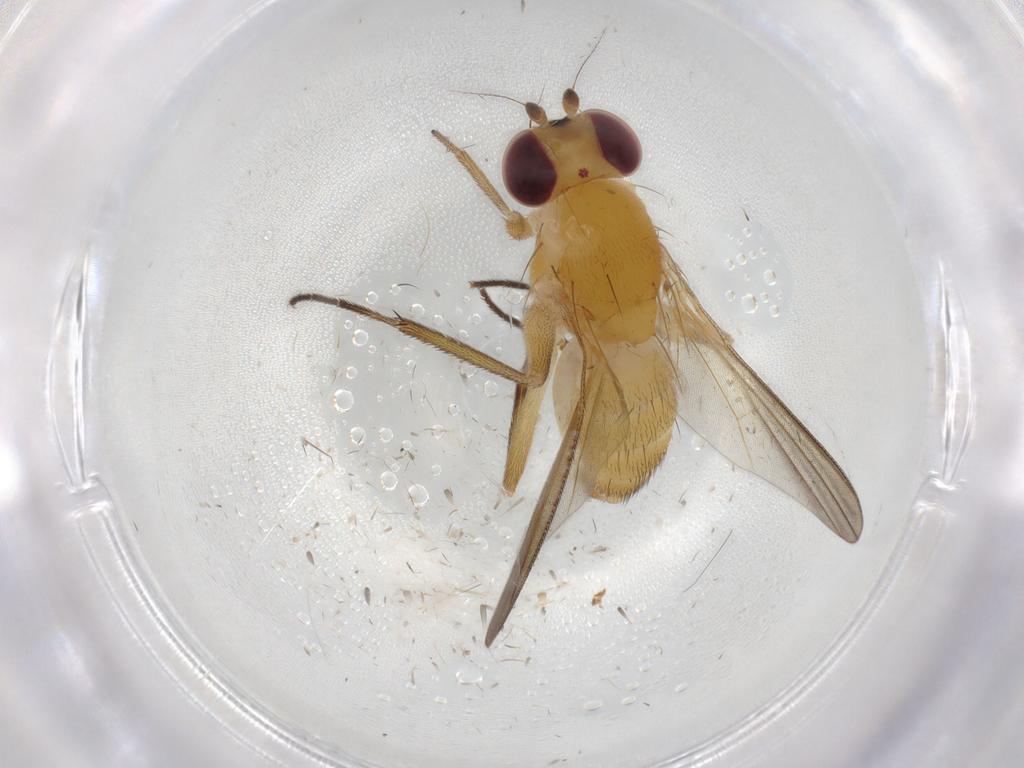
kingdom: Animalia
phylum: Arthropoda
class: Insecta
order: Diptera
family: Clusiidae
